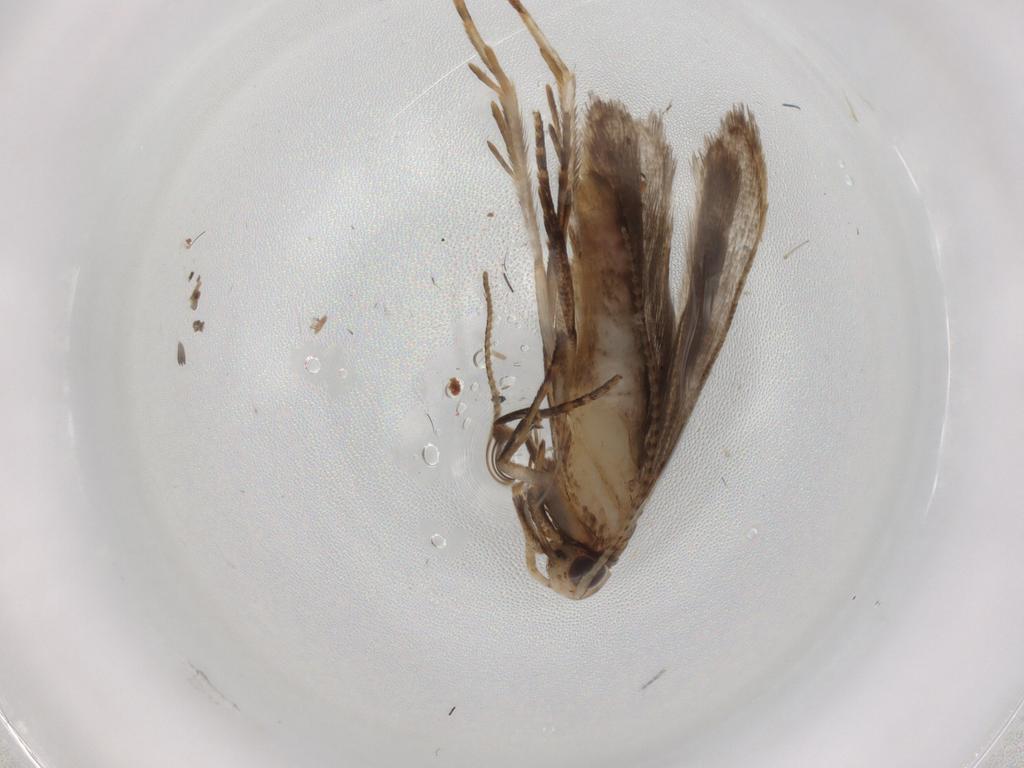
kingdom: Animalia
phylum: Arthropoda
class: Insecta
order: Lepidoptera
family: Gelechiidae
